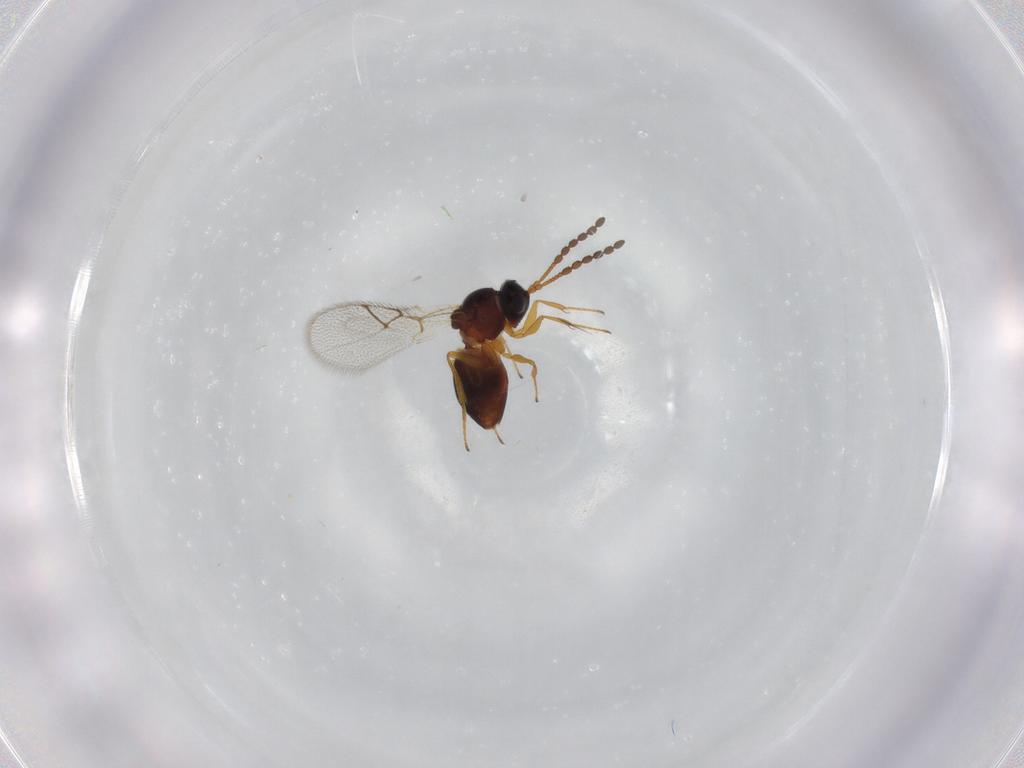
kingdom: Animalia
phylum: Arthropoda
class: Insecta
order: Hymenoptera
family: Figitidae
